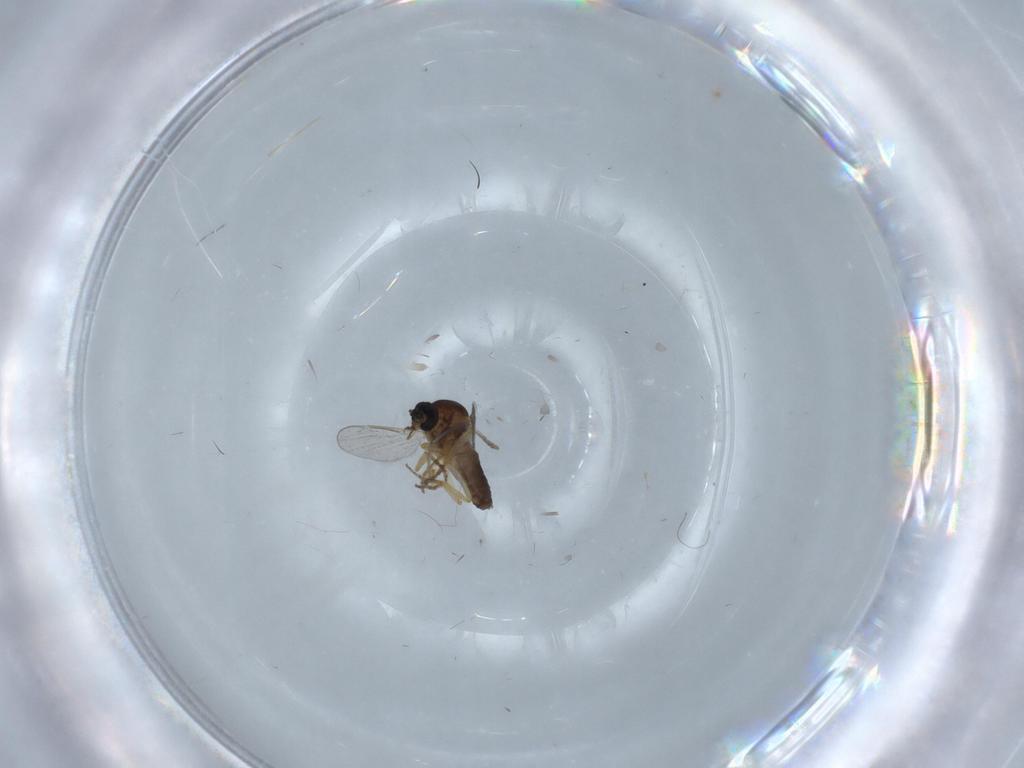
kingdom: Animalia
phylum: Arthropoda
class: Insecta
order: Diptera
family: Ceratopogonidae
